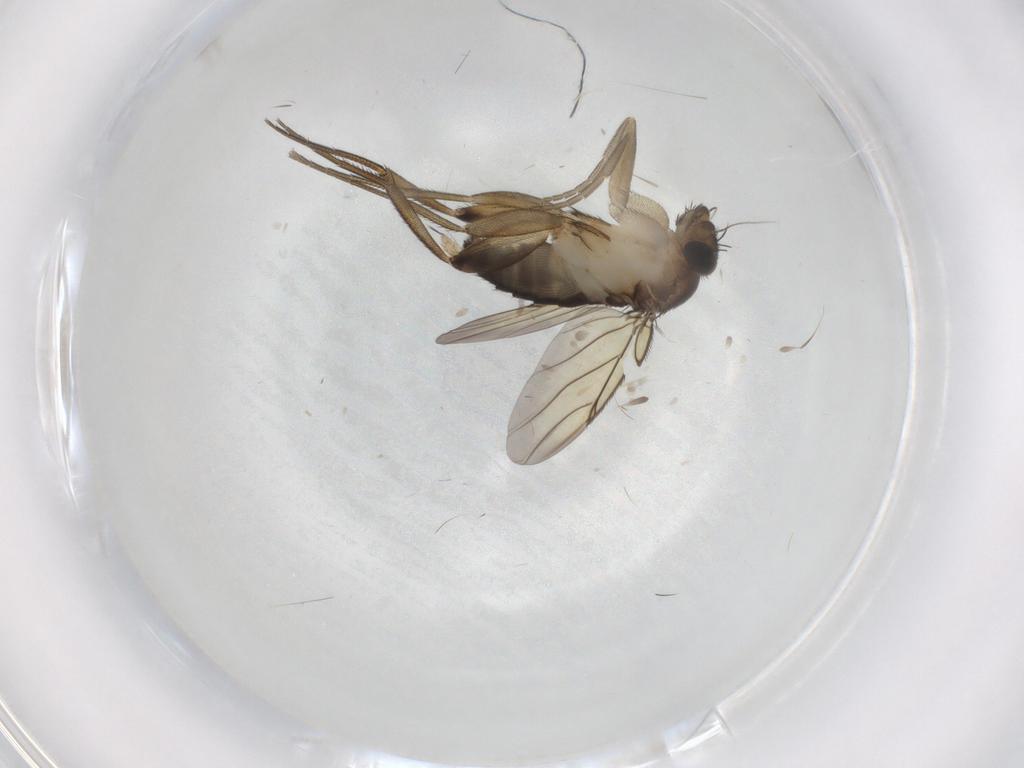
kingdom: Animalia
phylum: Arthropoda
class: Insecta
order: Diptera
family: Phoridae
